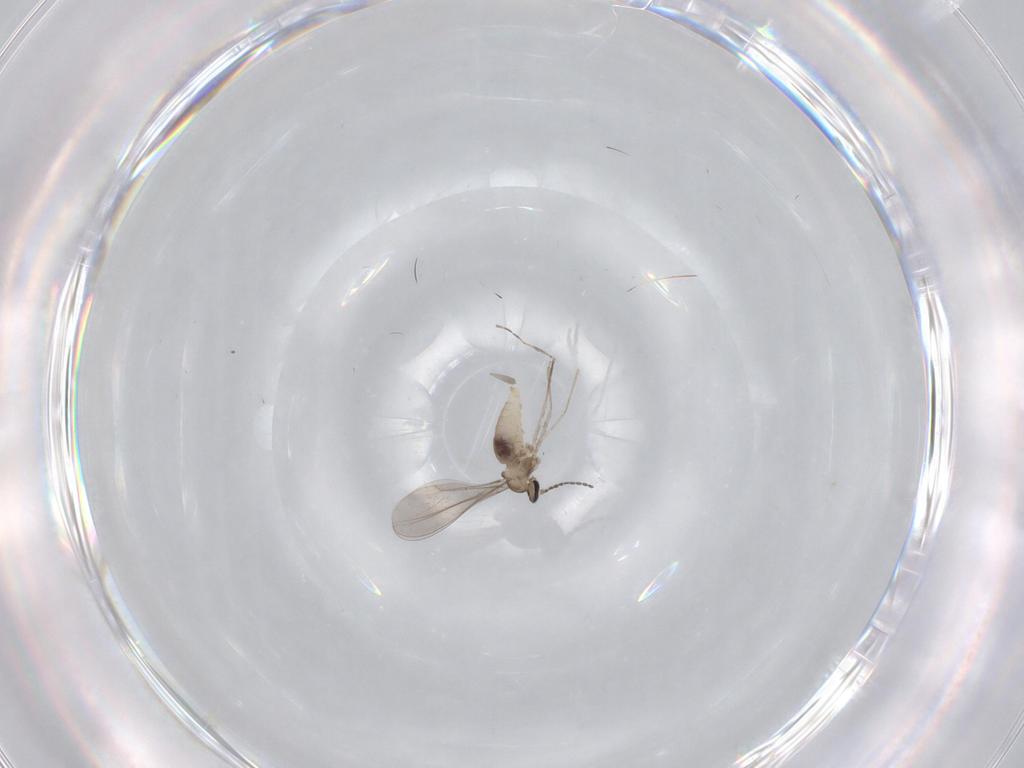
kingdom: Animalia
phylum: Arthropoda
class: Insecta
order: Diptera
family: Cecidomyiidae
